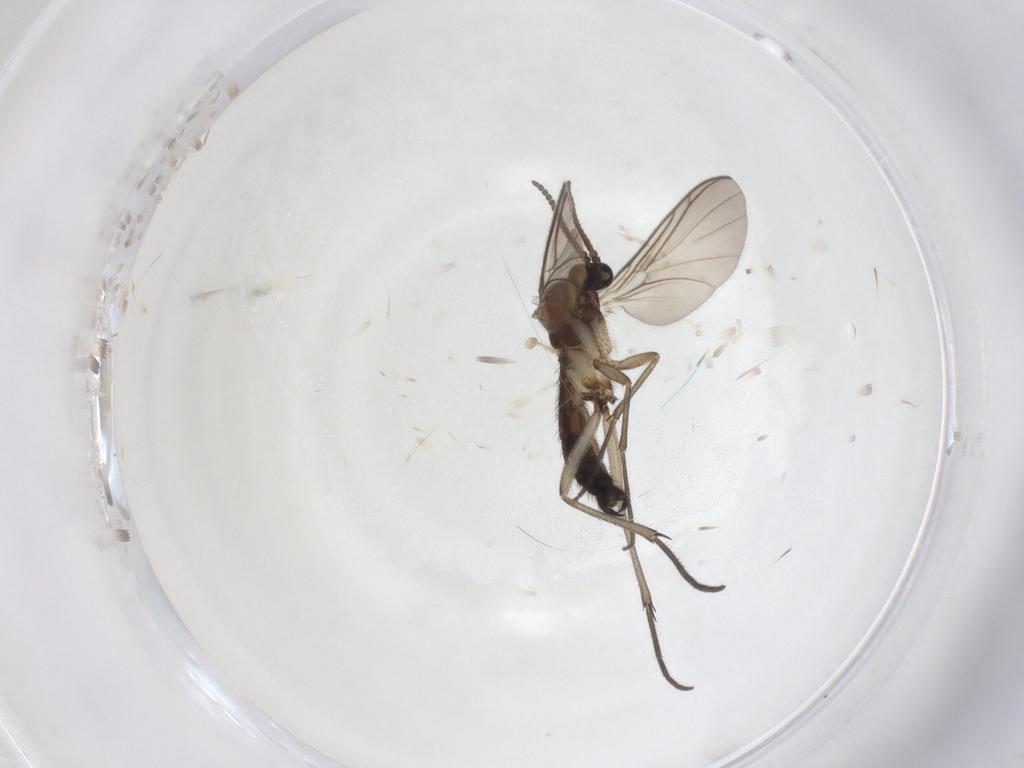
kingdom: Animalia
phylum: Arthropoda
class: Insecta
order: Diptera
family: Keroplatidae
